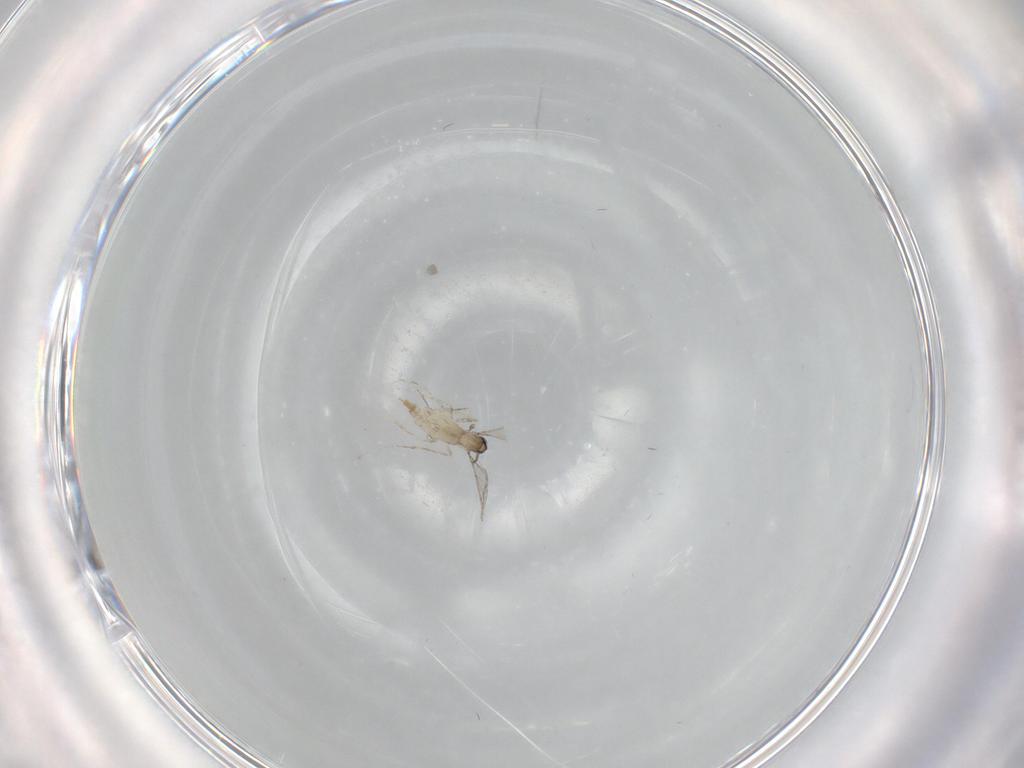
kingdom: Animalia
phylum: Arthropoda
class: Insecta
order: Diptera
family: Cecidomyiidae
